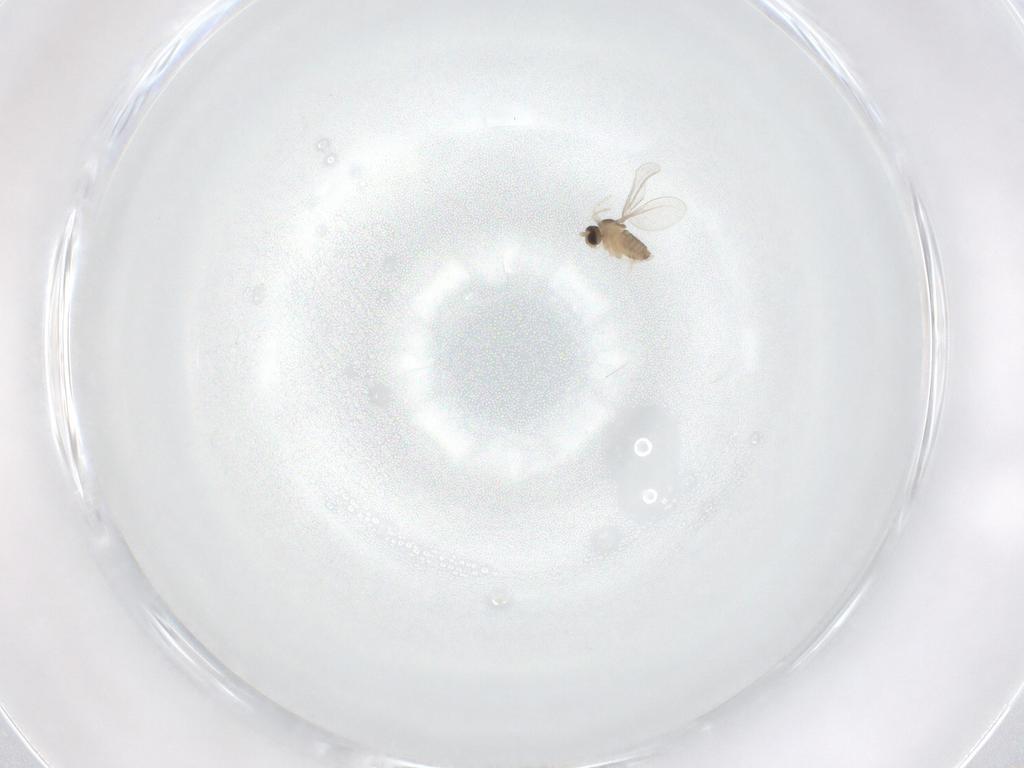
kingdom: Animalia
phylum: Arthropoda
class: Insecta
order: Diptera
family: Cecidomyiidae
